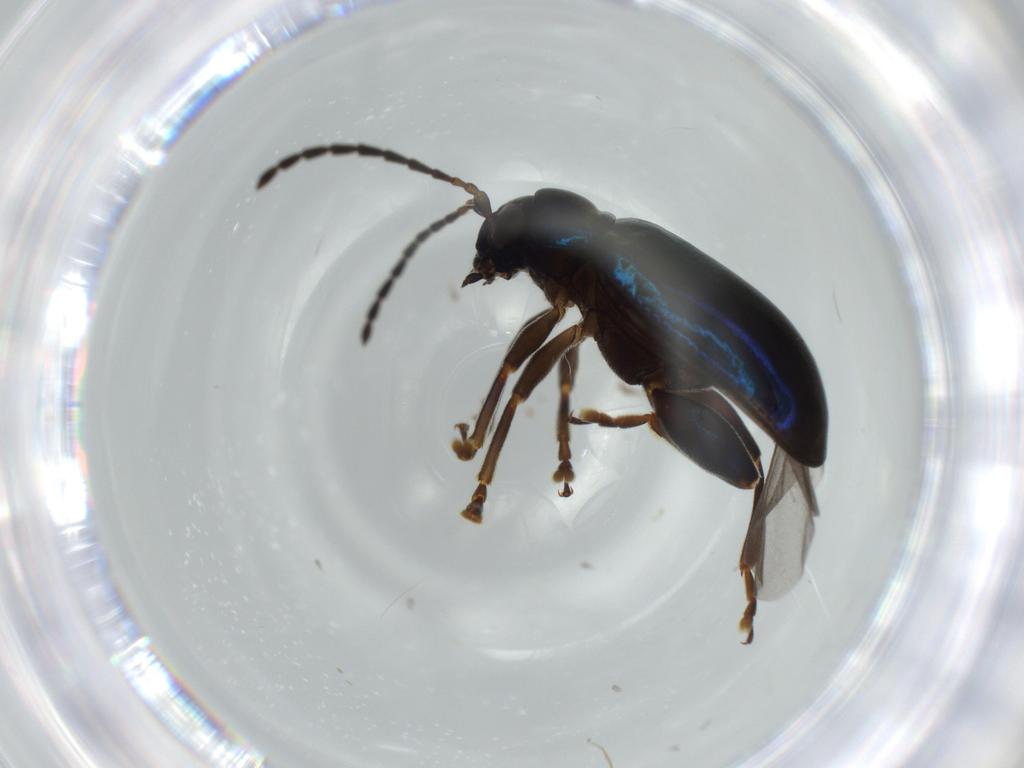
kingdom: Animalia
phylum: Arthropoda
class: Insecta
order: Coleoptera
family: Chrysomelidae
